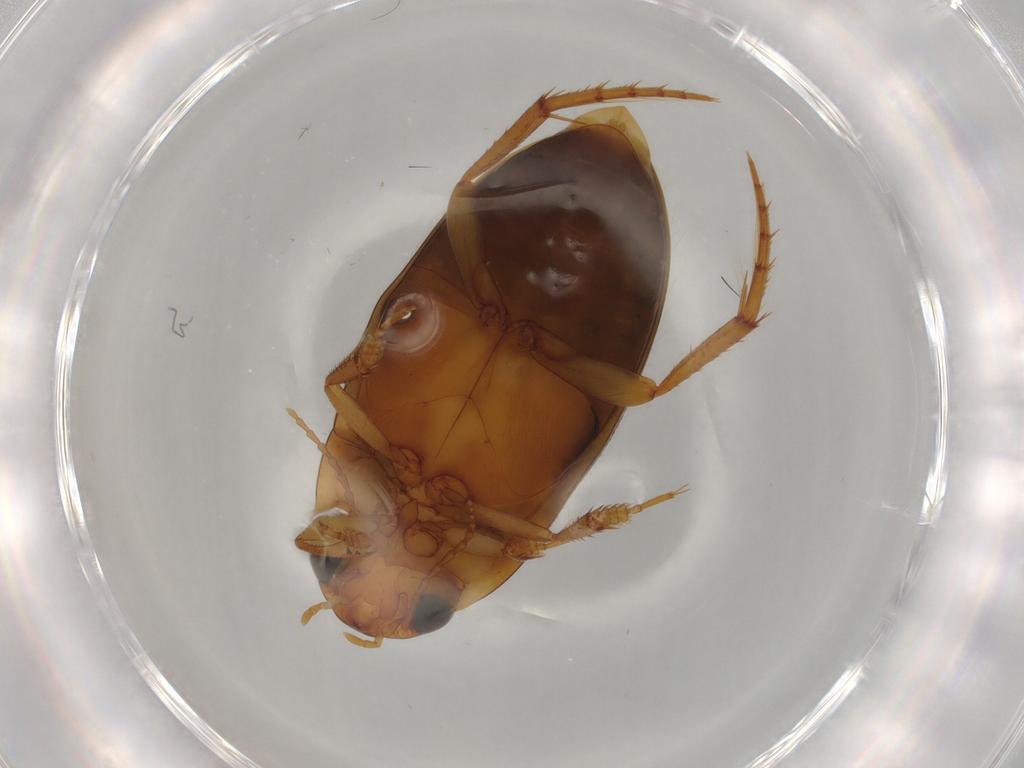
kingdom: Animalia
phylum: Arthropoda
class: Insecta
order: Coleoptera
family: Dytiscidae
